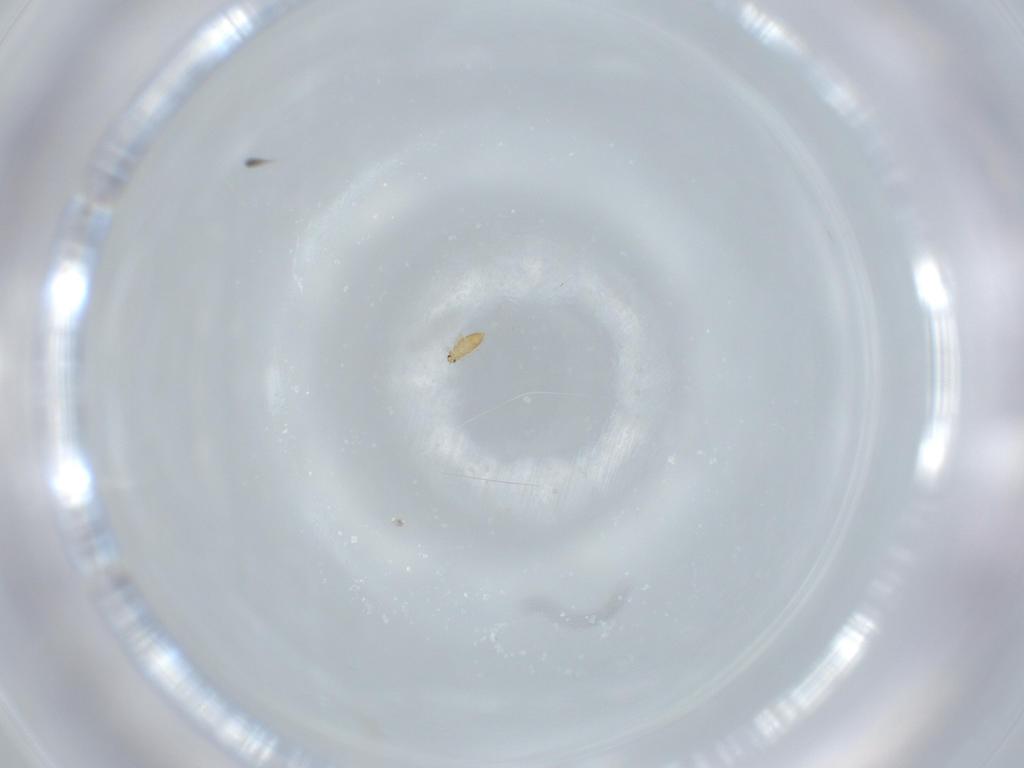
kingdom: Animalia
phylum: Arthropoda
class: Insecta
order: Coleoptera
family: Ripiphoridae
